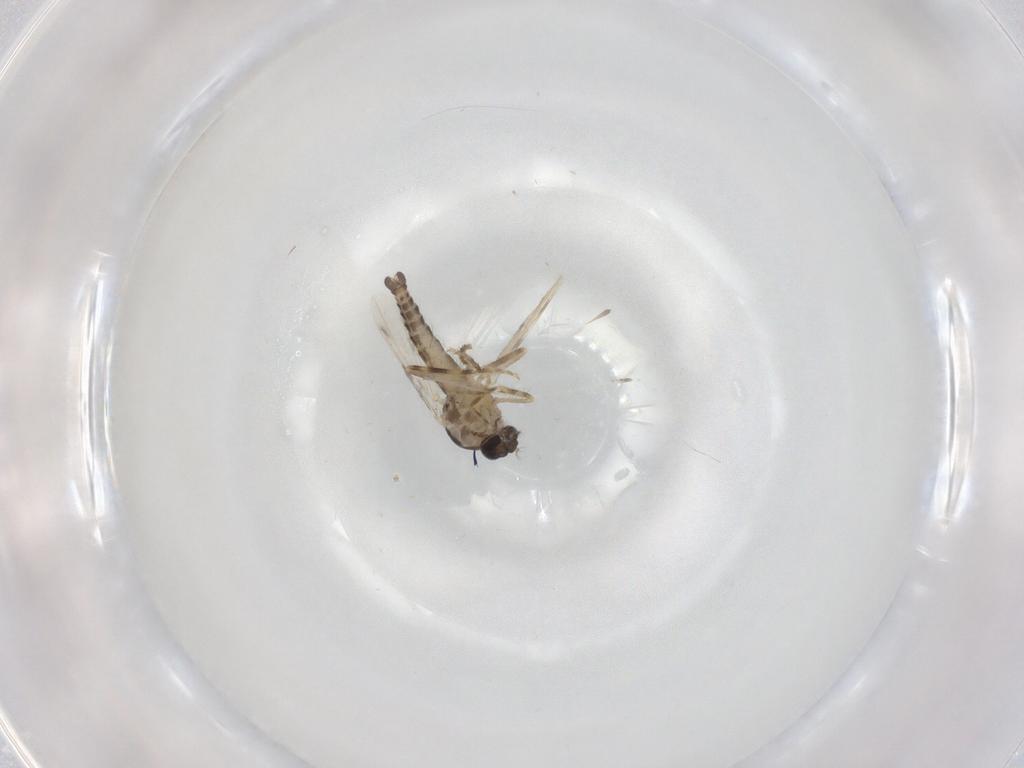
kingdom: Animalia
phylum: Arthropoda
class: Insecta
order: Diptera
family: Ceratopogonidae
